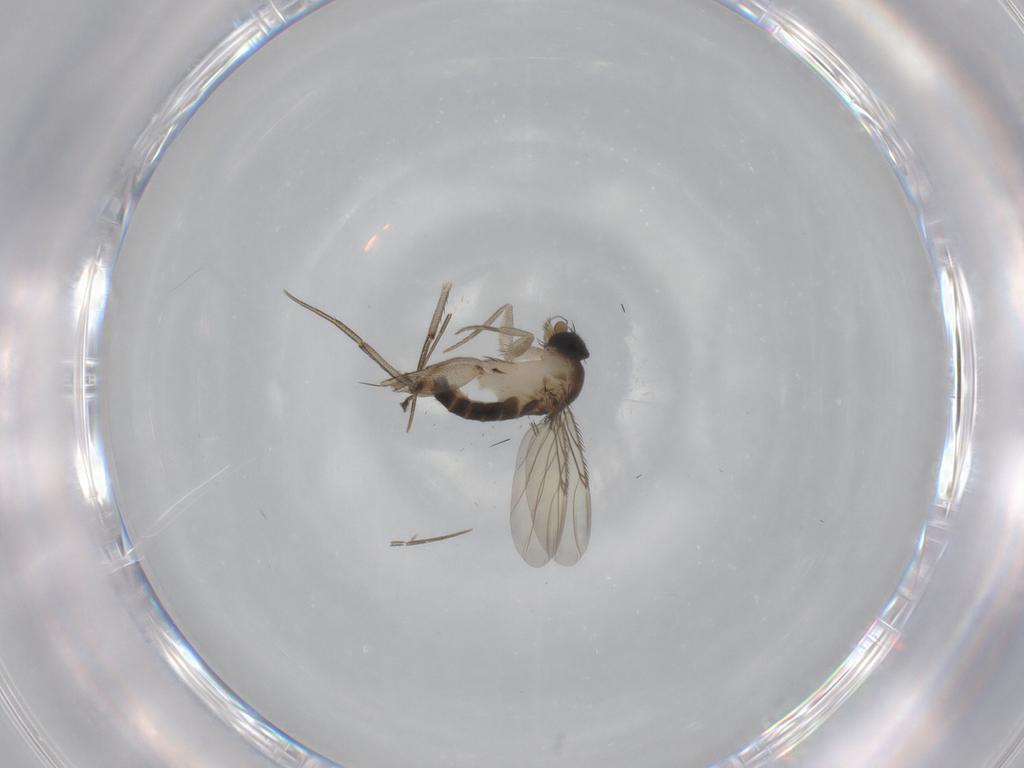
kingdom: Animalia
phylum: Arthropoda
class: Insecta
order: Diptera
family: Phoridae
